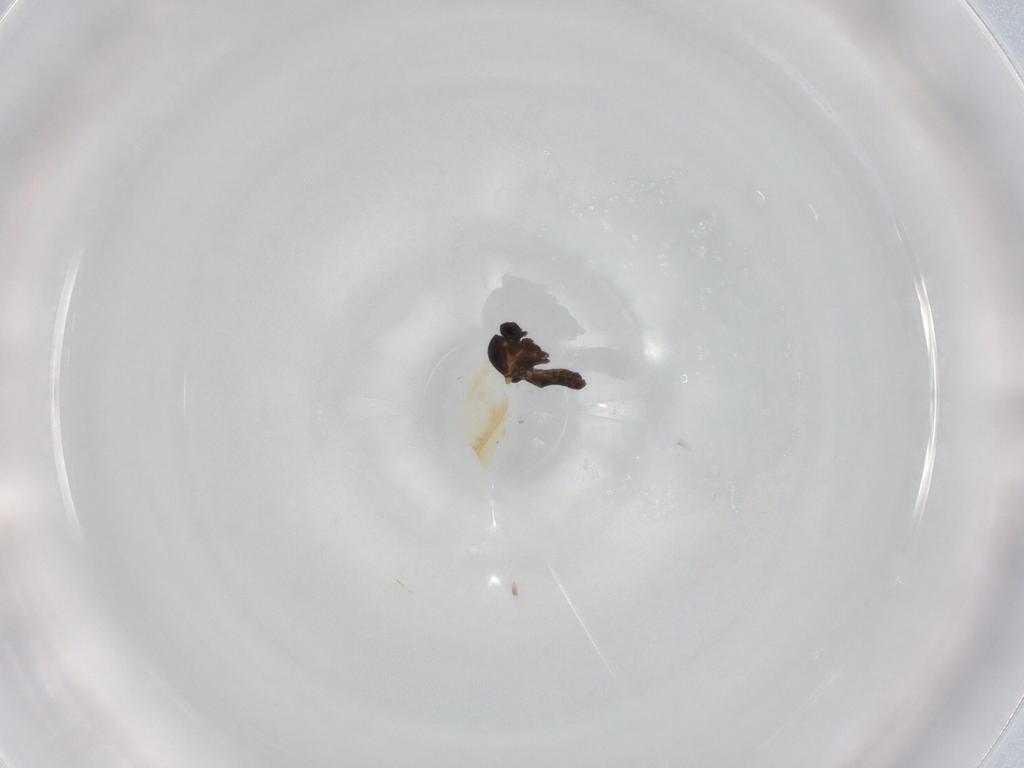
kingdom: Animalia
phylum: Arthropoda
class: Insecta
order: Diptera
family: Ceratopogonidae
